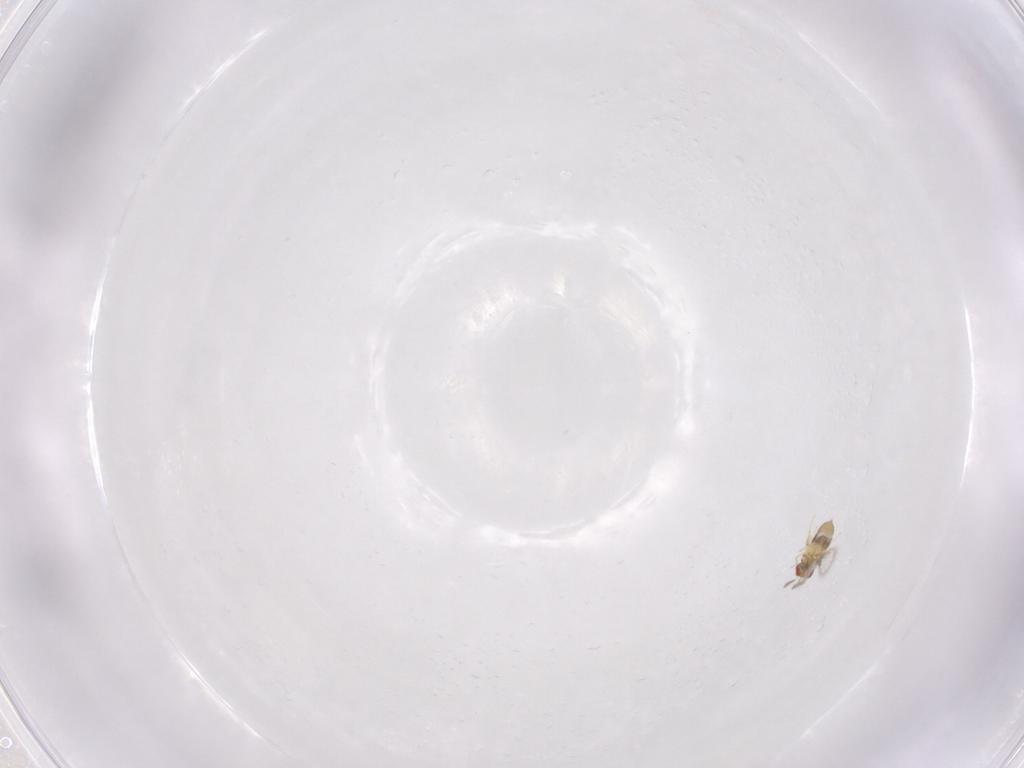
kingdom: Animalia
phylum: Arthropoda
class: Insecta
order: Hymenoptera
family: Trichogrammatidae
